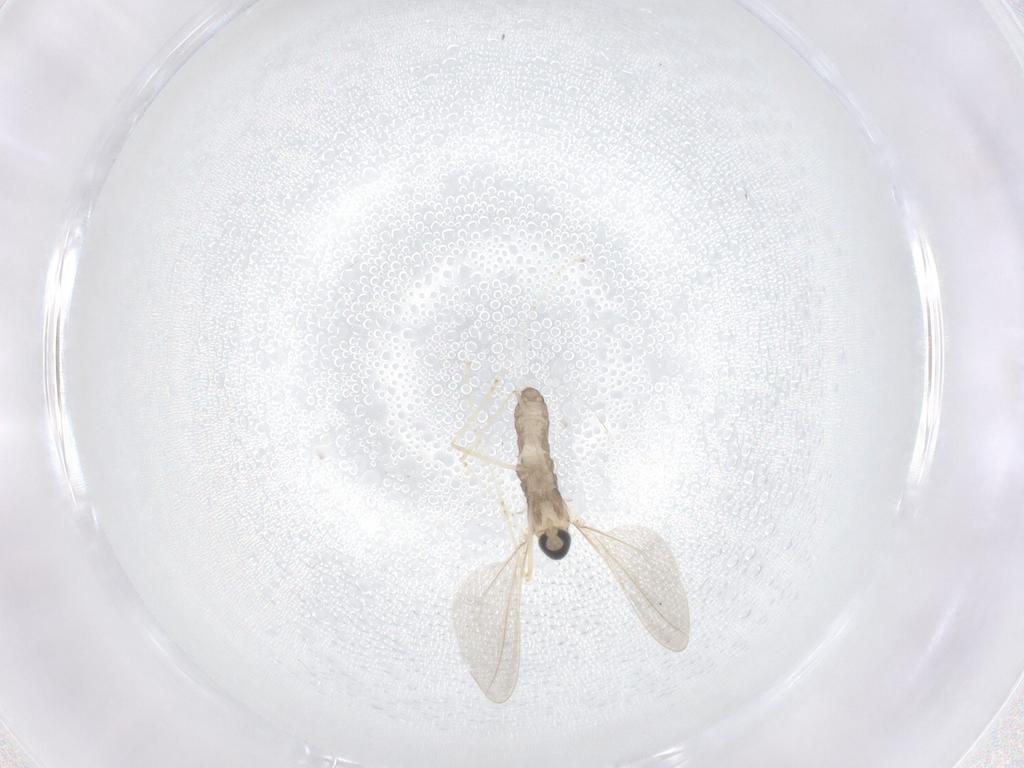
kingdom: Animalia
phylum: Arthropoda
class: Insecta
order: Diptera
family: Cecidomyiidae
